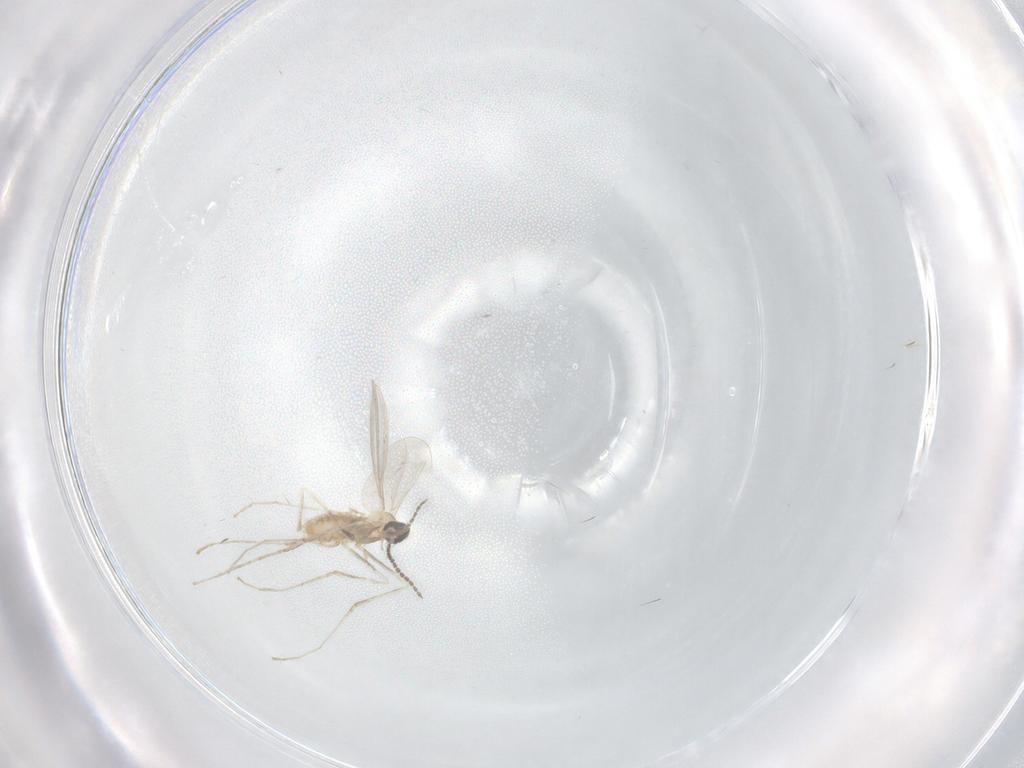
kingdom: Animalia
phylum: Arthropoda
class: Insecta
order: Diptera
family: Cecidomyiidae
